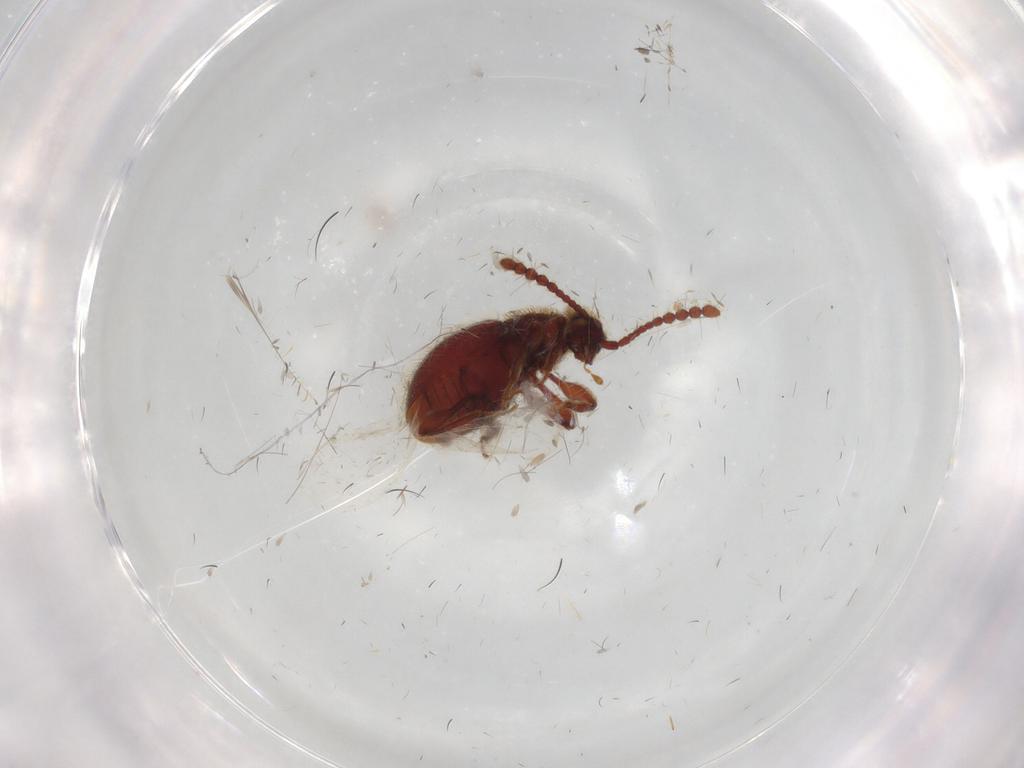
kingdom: Animalia
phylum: Arthropoda
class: Insecta
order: Coleoptera
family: Staphylinidae
